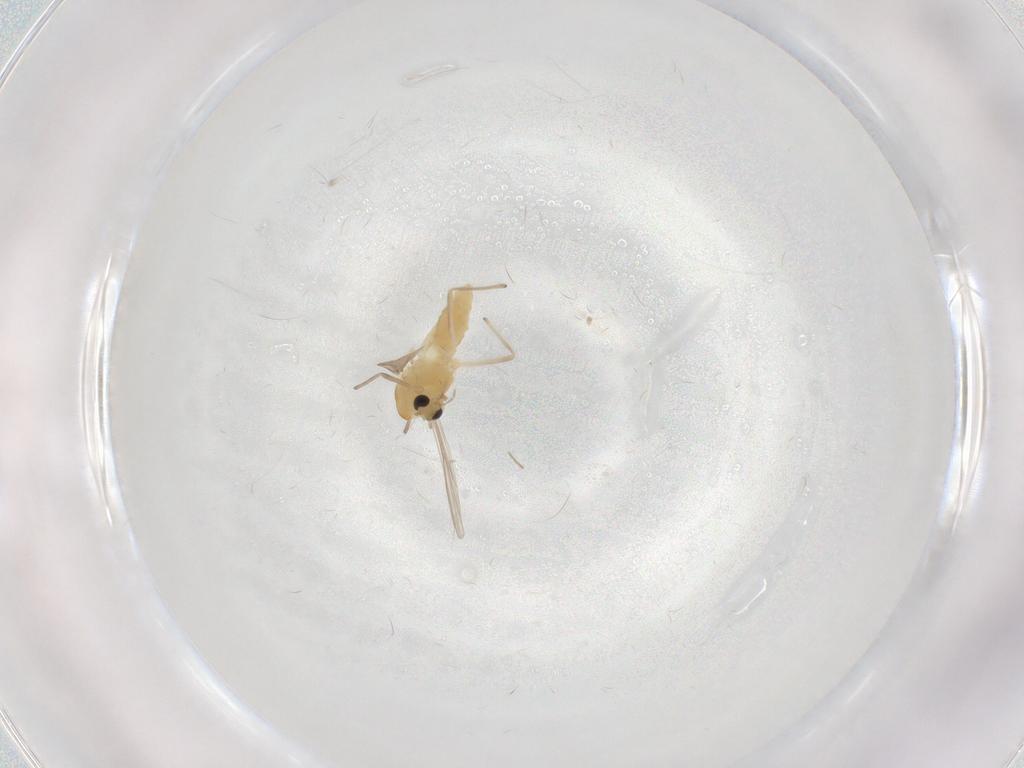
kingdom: Animalia
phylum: Arthropoda
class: Insecta
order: Diptera
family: Chironomidae
